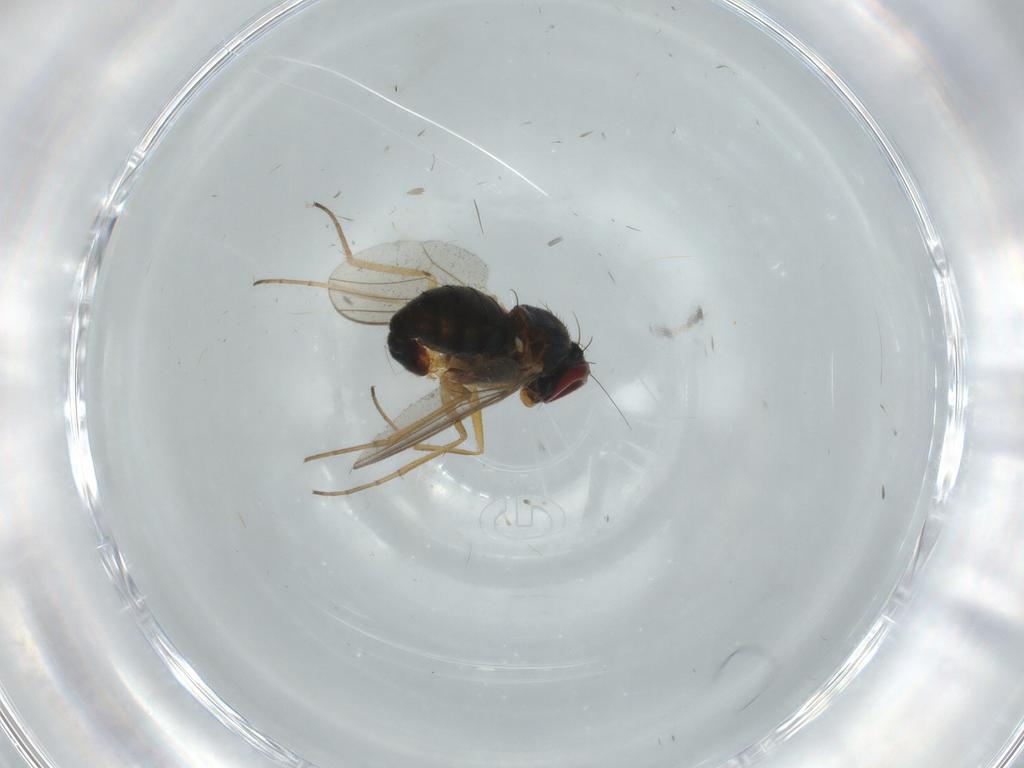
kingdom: Animalia
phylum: Arthropoda
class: Insecta
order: Diptera
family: Dolichopodidae
